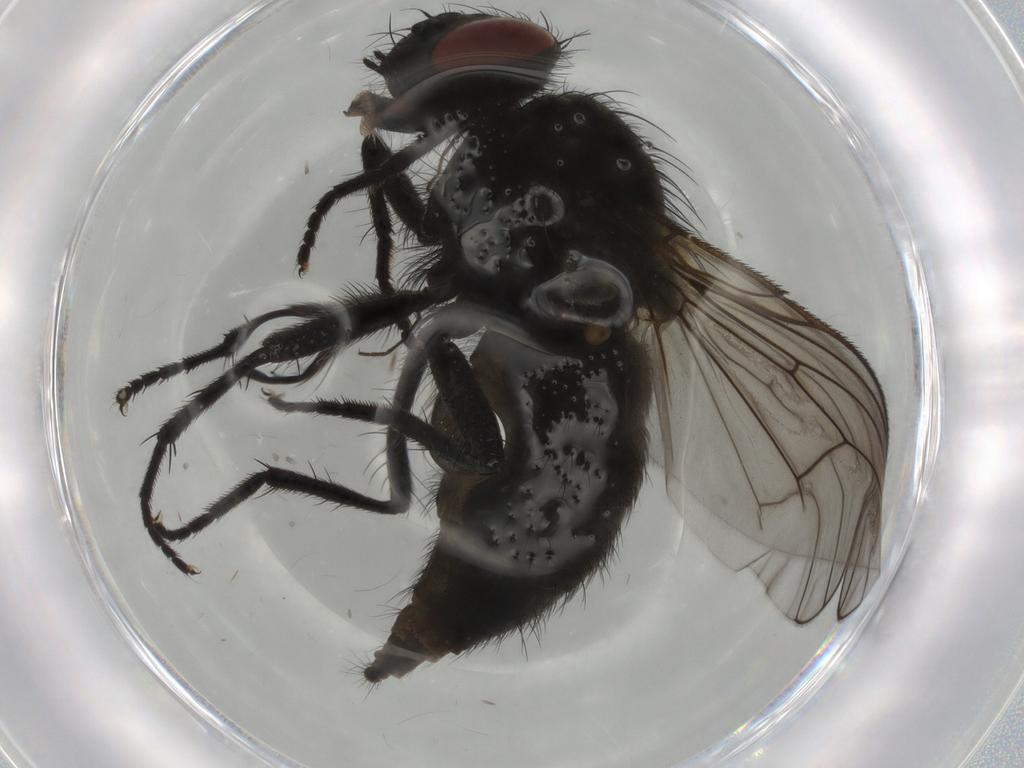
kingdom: Animalia
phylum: Arthropoda
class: Insecta
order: Diptera
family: Muscidae
